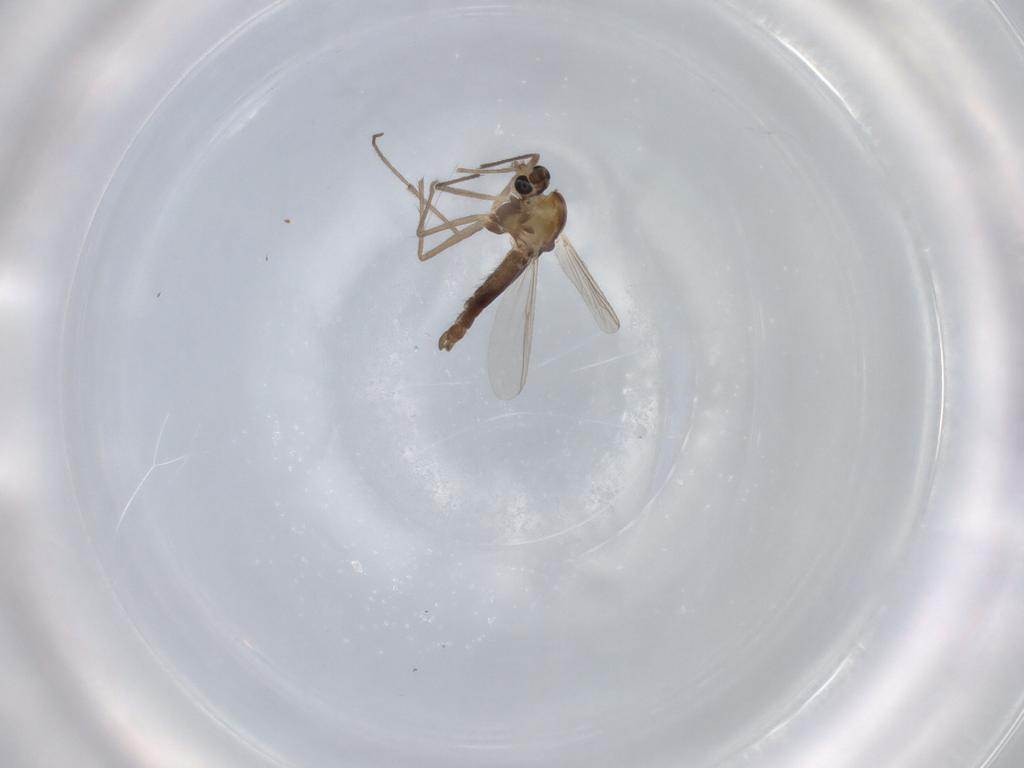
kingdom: Animalia
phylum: Arthropoda
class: Insecta
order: Diptera
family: Chironomidae
